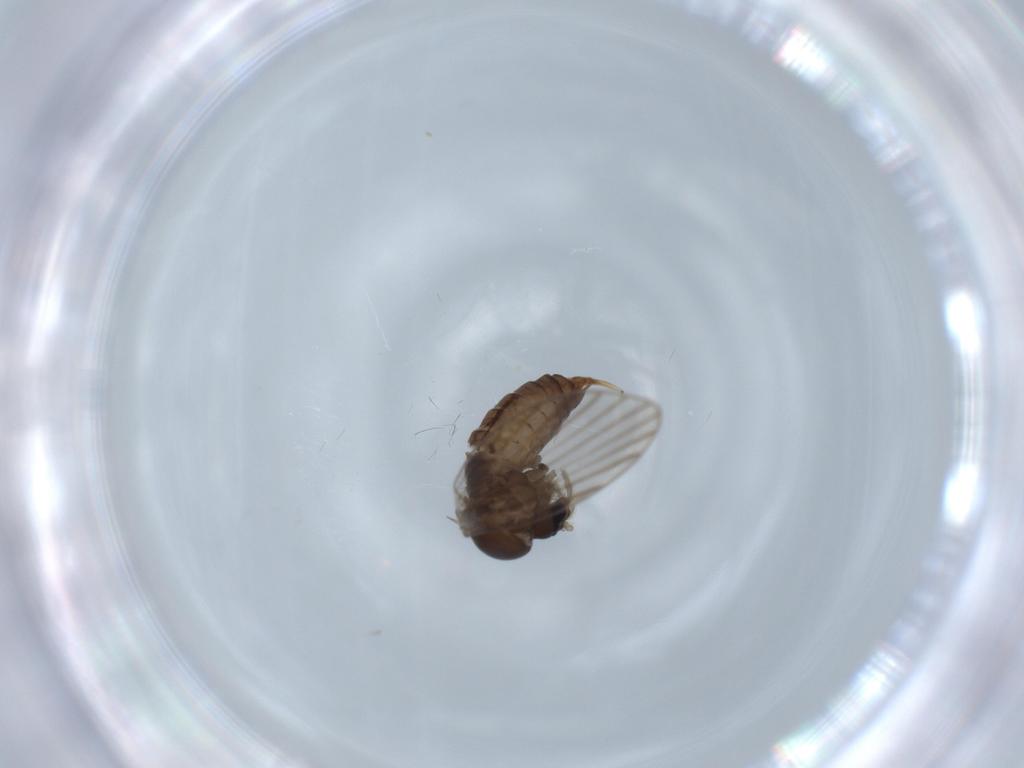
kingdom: Animalia
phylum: Arthropoda
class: Insecta
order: Diptera
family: Psychodidae
